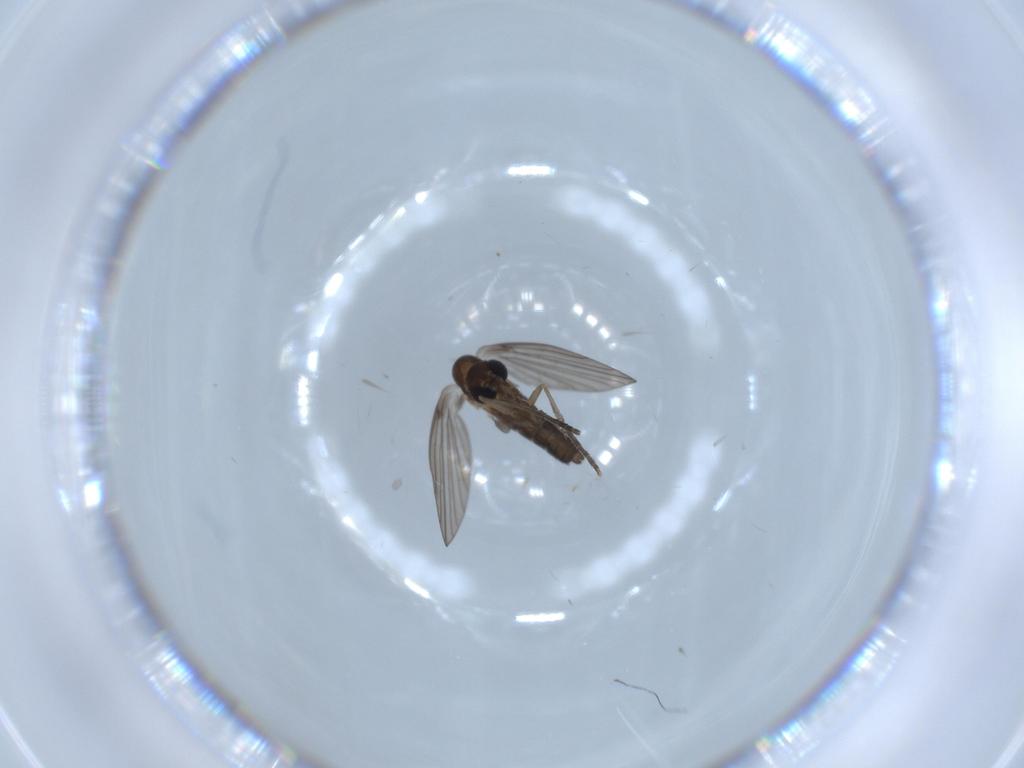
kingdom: Animalia
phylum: Arthropoda
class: Insecta
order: Diptera
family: Psychodidae
